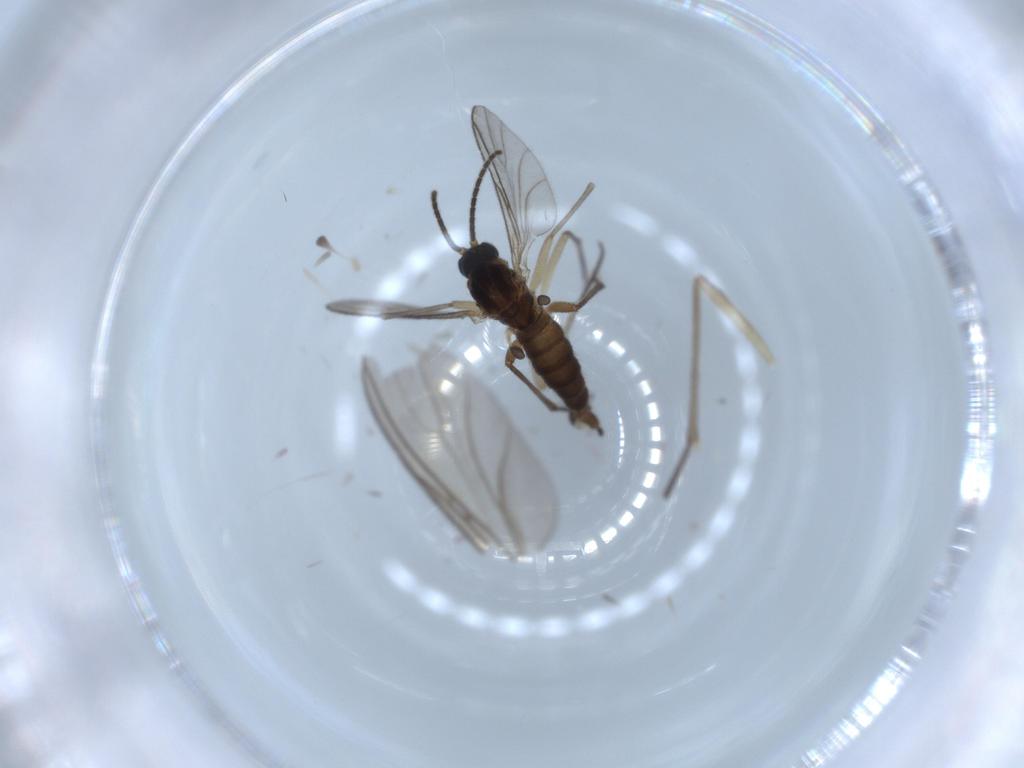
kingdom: Animalia
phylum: Arthropoda
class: Insecta
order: Diptera
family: Sciaridae
